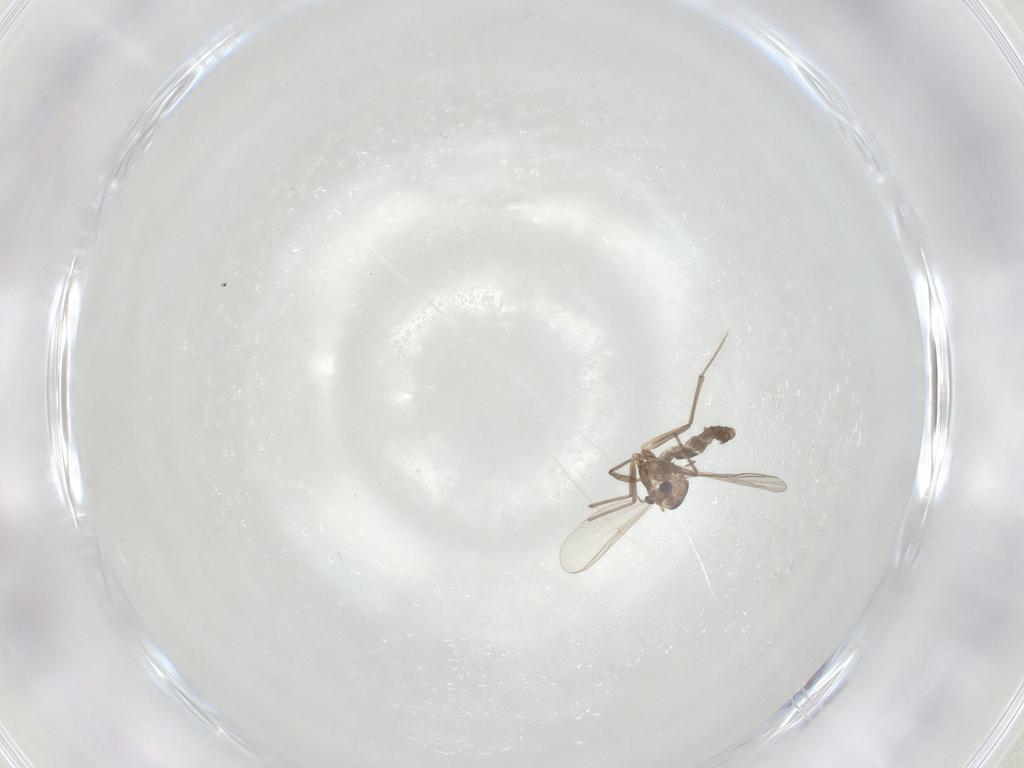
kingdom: Animalia
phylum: Arthropoda
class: Insecta
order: Diptera
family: Chironomidae
